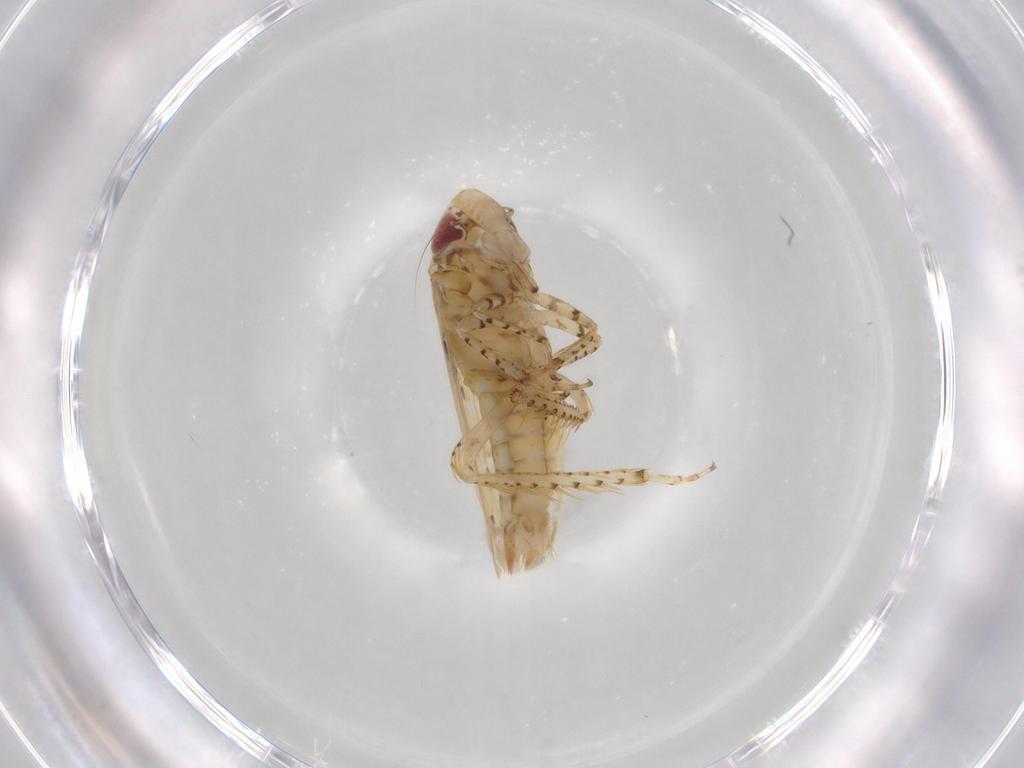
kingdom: Animalia
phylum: Arthropoda
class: Insecta
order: Hemiptera
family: Cicadellidae
